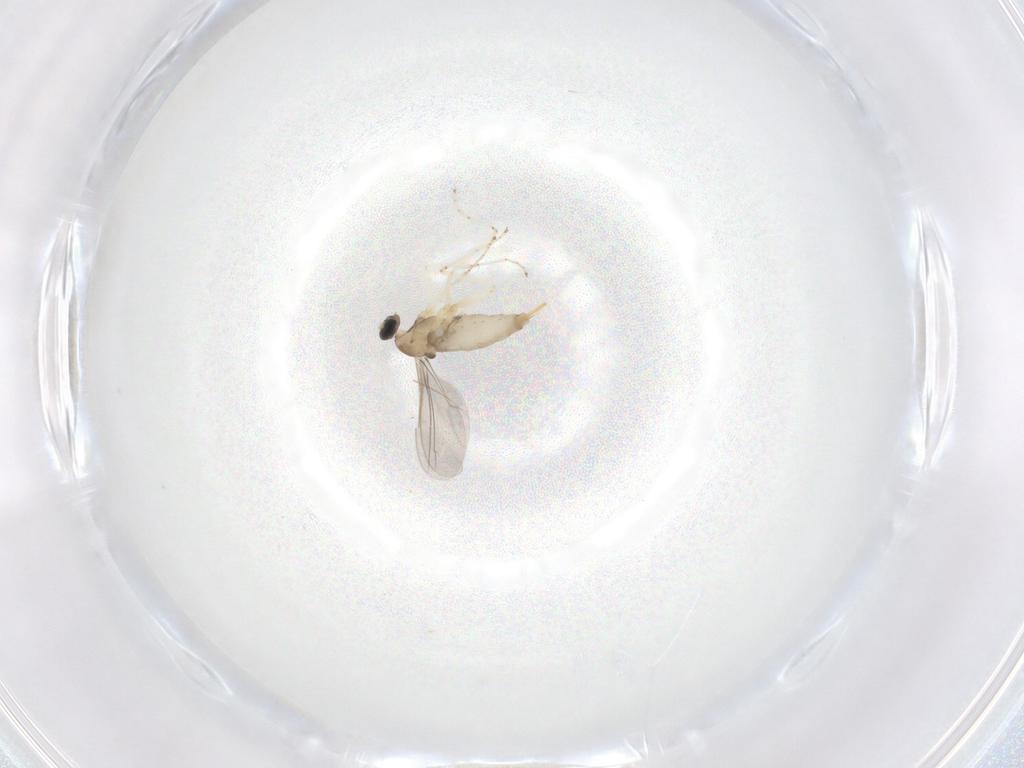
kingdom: Animalia
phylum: Arthropoda
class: Insecta
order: Diptera
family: Cecidomyiidae
